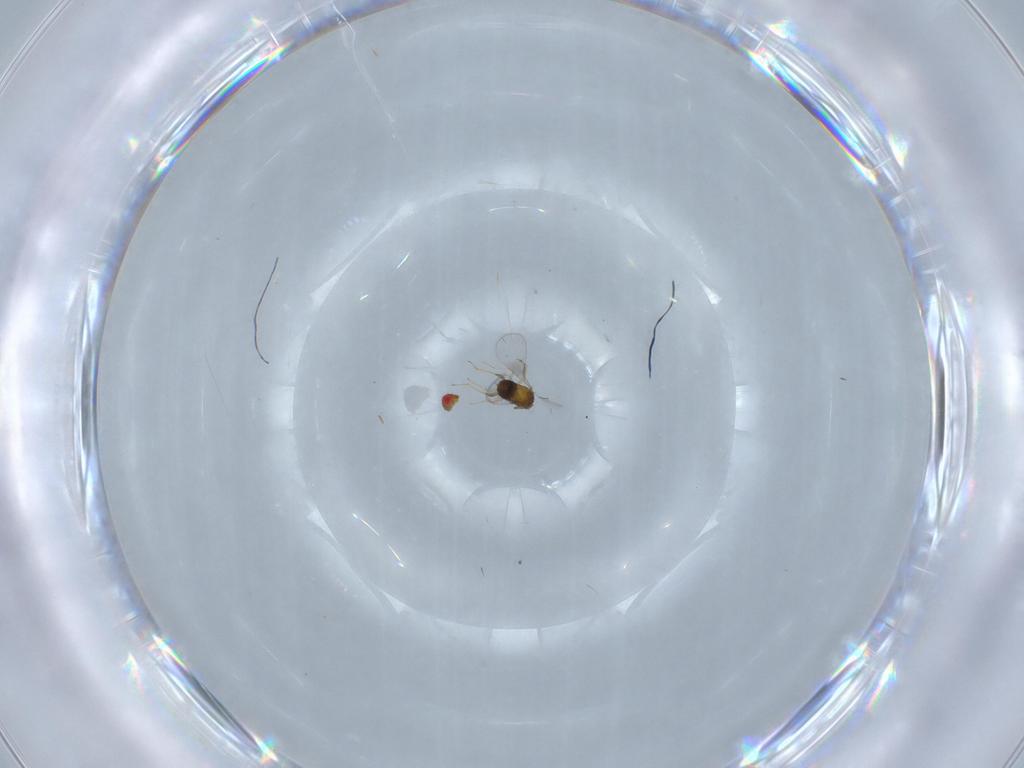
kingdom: Animalia
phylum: Arthropoda
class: Insecta
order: Hymenoptera
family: Trichogrammatidae
